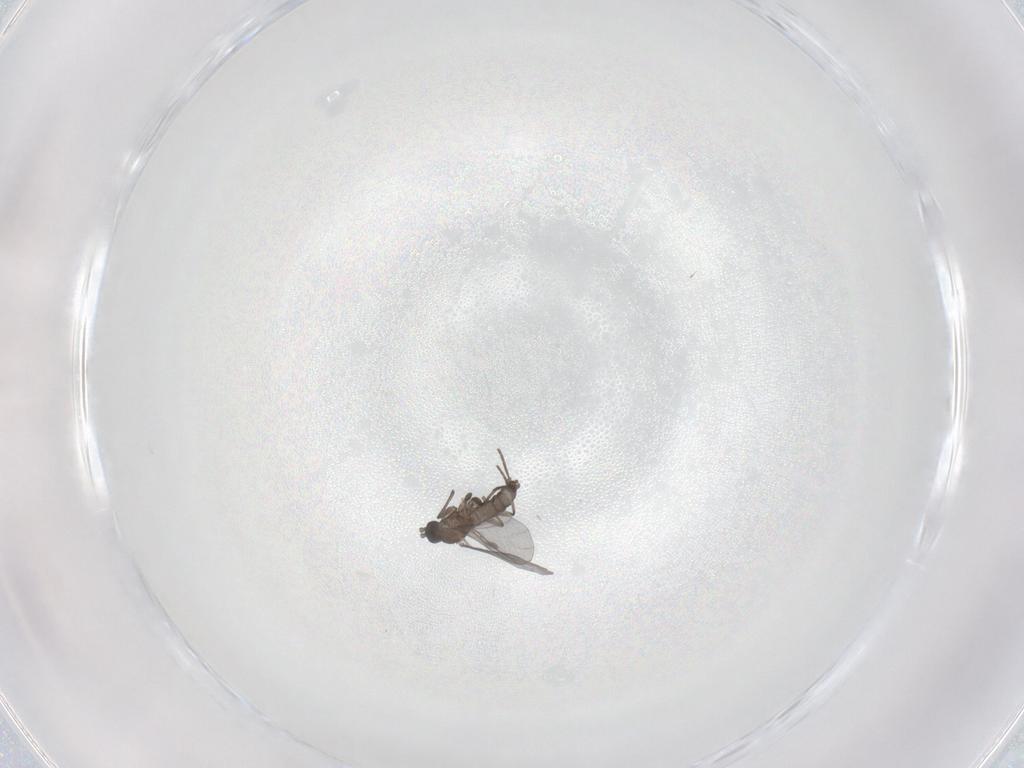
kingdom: Animalia
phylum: Arthropoda
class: Insecta
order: Diptera
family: Sciaridae
